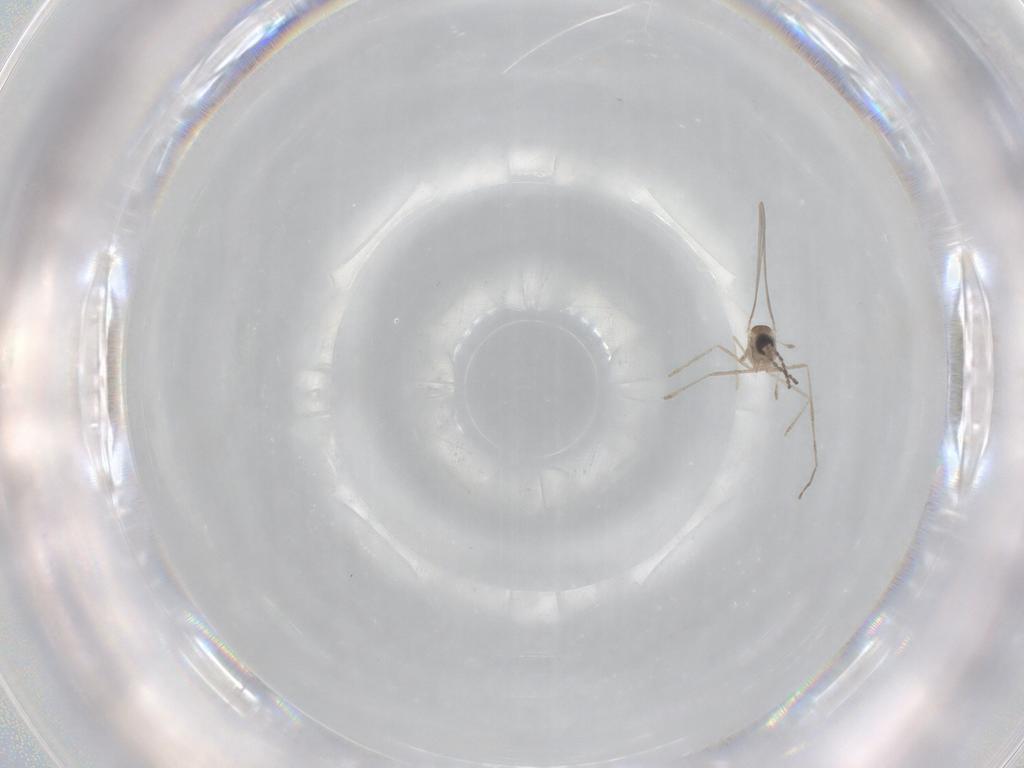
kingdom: Animalia
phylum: Arthropoda
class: Insecta
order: Diptera
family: Cecidomyiidae
